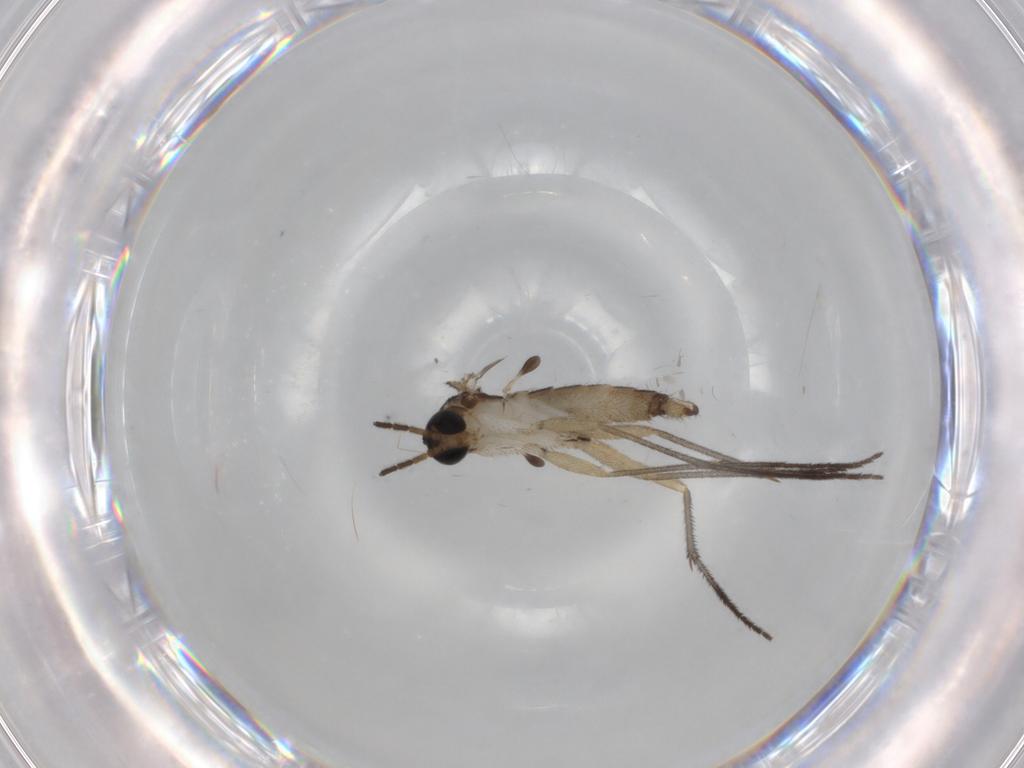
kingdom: Animalia
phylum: Arthropoda
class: Insecta
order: Diptera
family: Sciaridae
